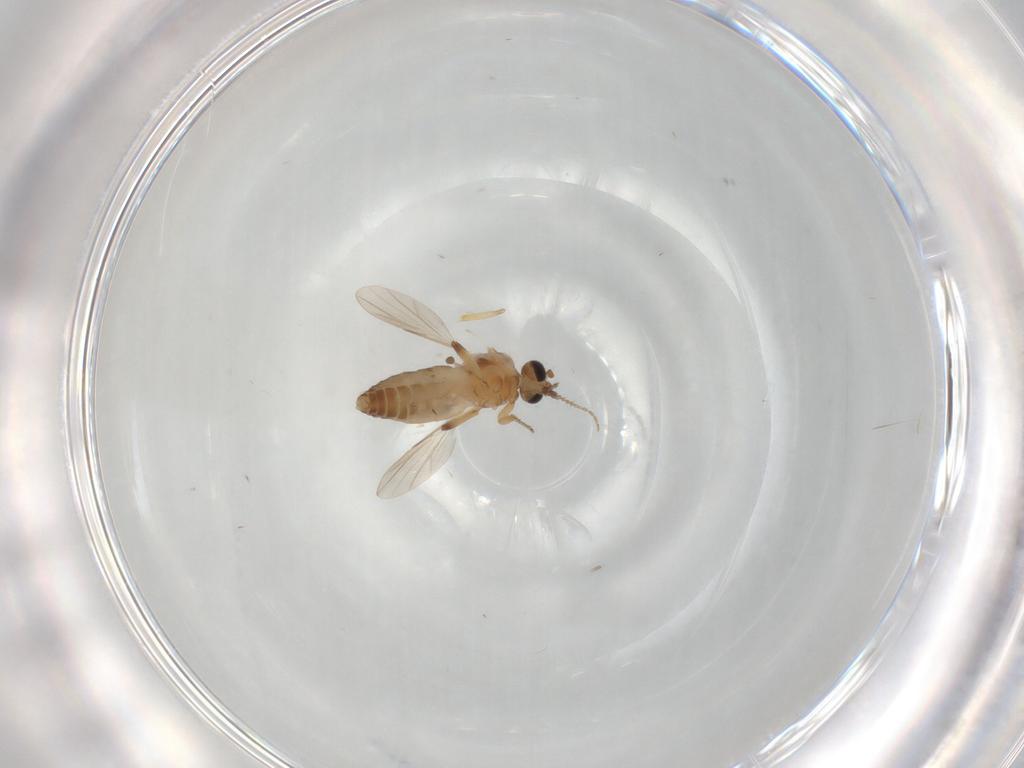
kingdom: Animalia
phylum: Arthropoda
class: Insecta
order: Diptera
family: Ceratopogonidae
